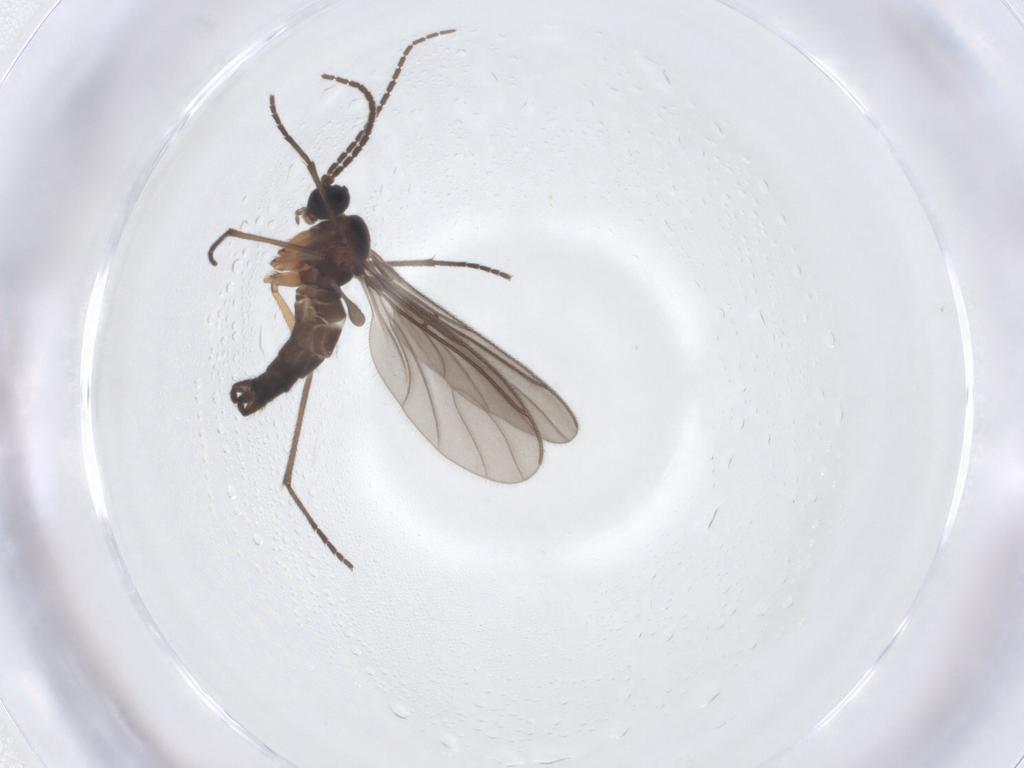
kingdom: Animalia
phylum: Arthropoda
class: Insecta
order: Diptera
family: Sciaridae
